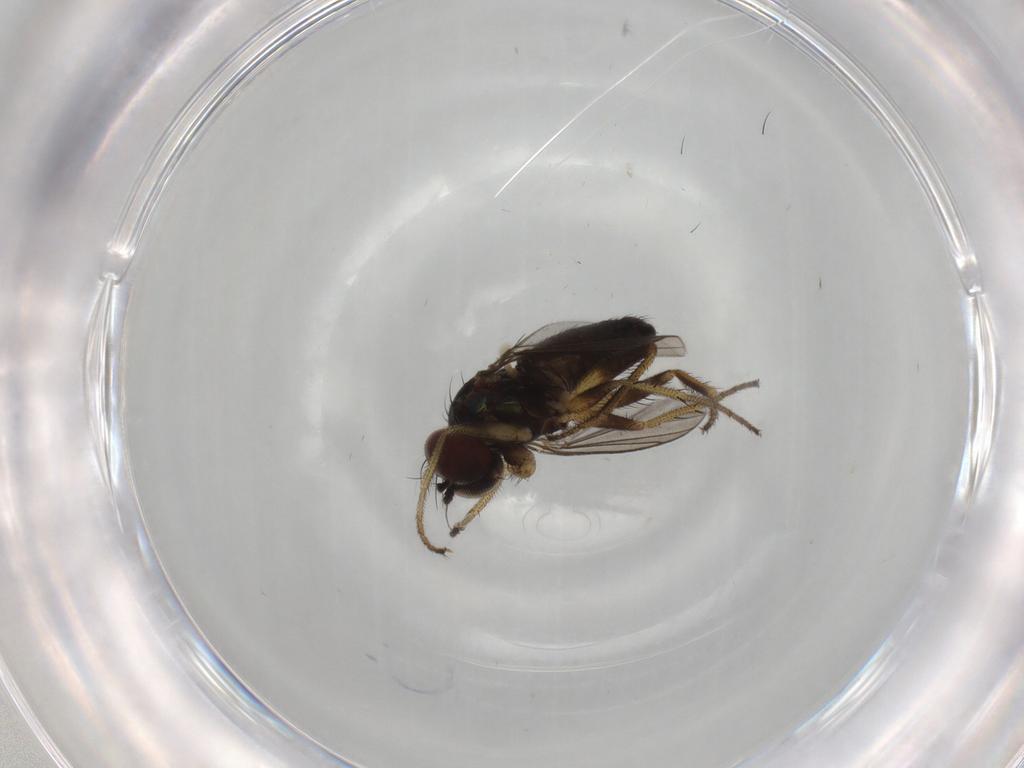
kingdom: Animalia
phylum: Arthropoda
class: Insecta
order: Diptera
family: Dolichopodidae
